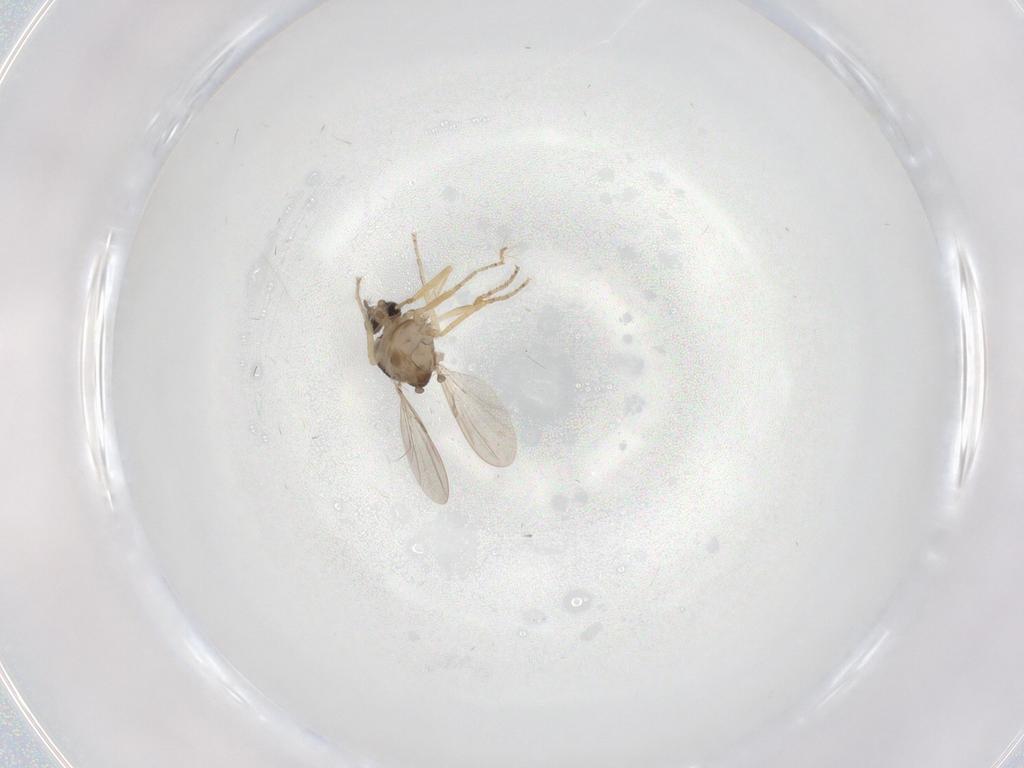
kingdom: Animalia
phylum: Arthropoda
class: Insecta
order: Diptera
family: Ceratopogonidae
